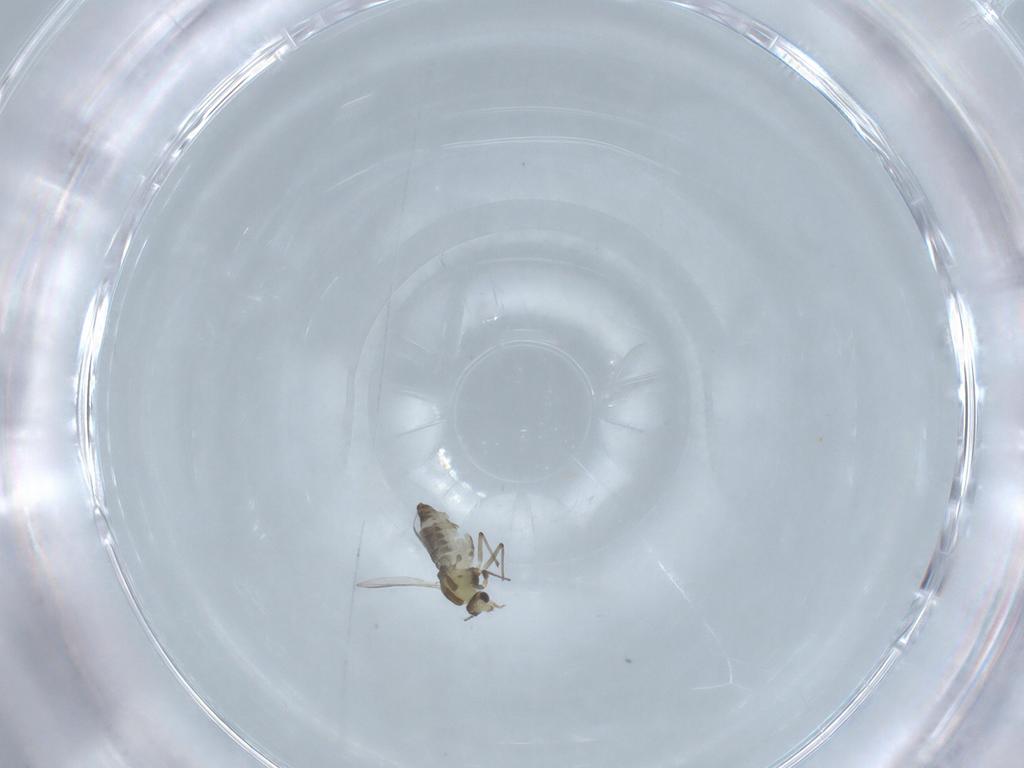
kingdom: Animalia
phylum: Arthropoda
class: Insecta
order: Diptera
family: Chironomidae
